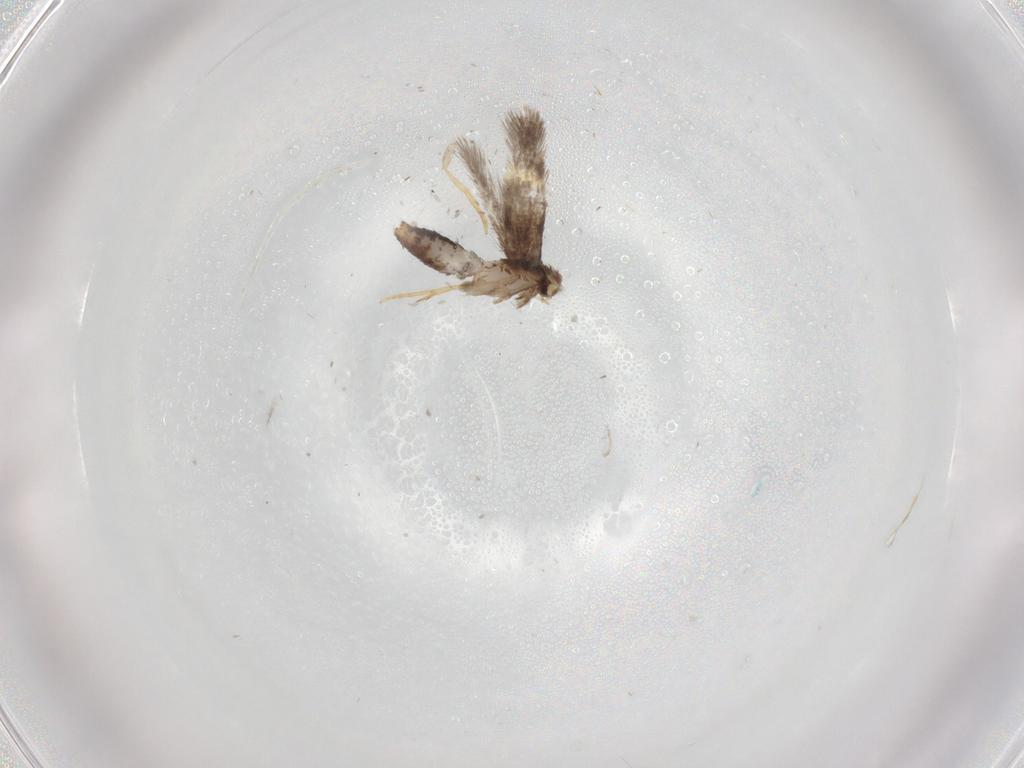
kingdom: Animalia
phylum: Arthropoda
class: Insecta
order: Lepidoptera
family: Nepticulidae
